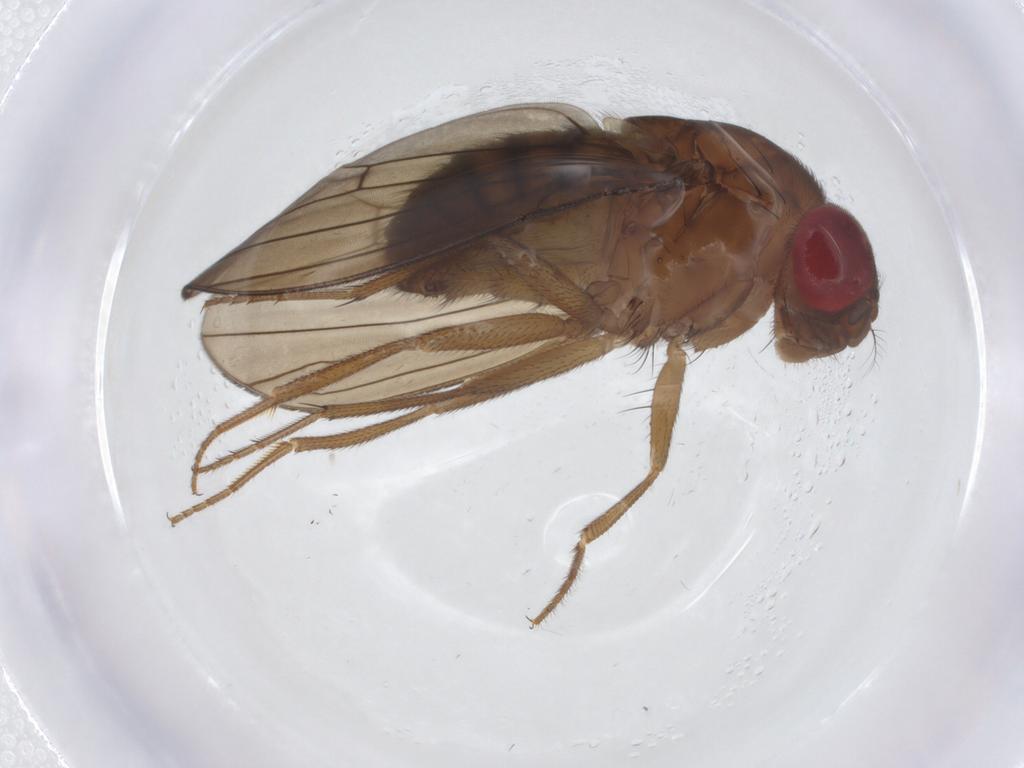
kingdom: Animalia
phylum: Arthropoda
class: Insecta
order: Diptera
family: Drosophilidae
